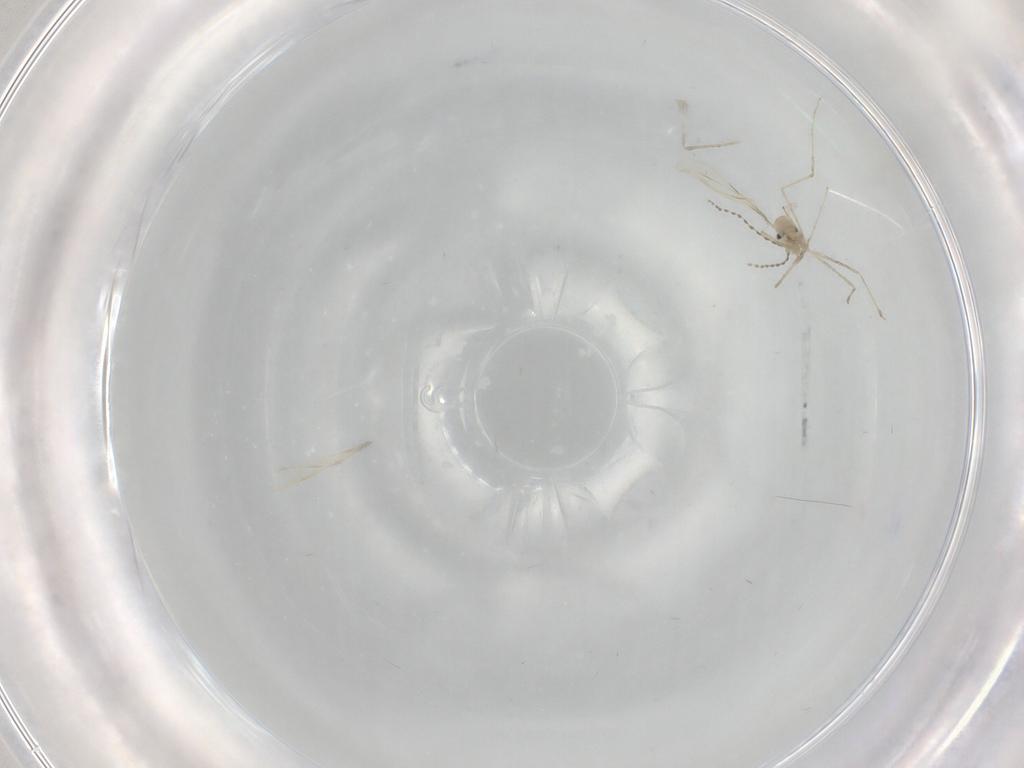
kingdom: Animalia
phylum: Arthropoda
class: Insecta
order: Diptera
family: Cecidomyiidae
